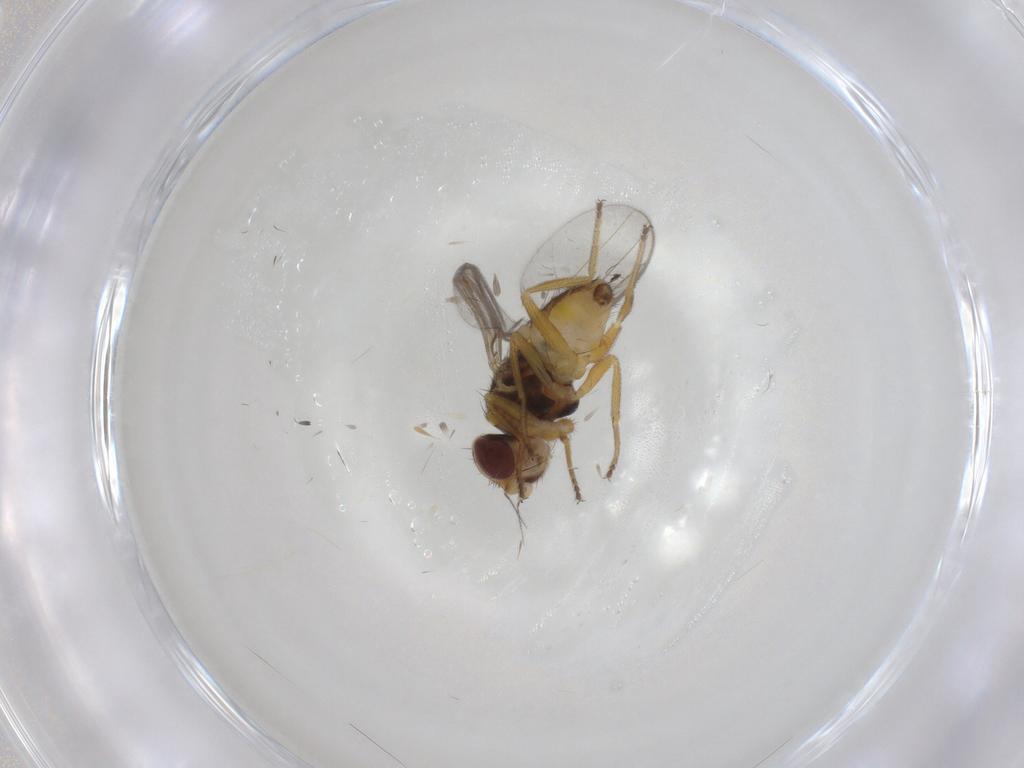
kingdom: Animalia
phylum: Arthropoda
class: Insecta
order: Diptera
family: Chloropidae
